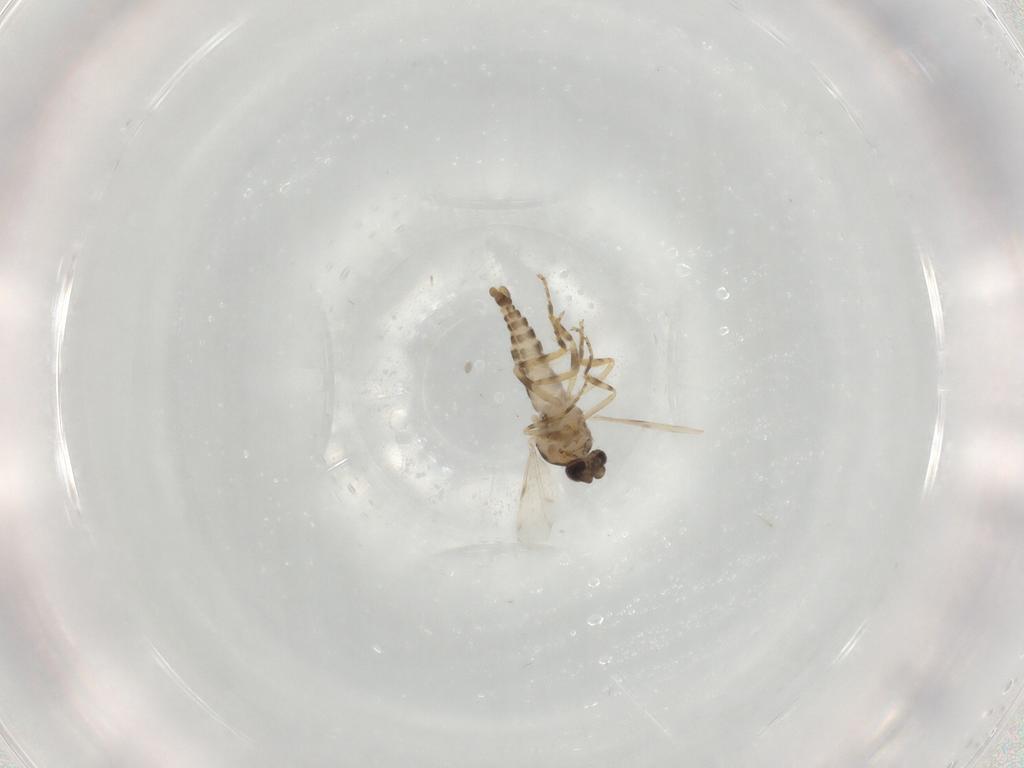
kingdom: Animalia
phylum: Arthropoda
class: Insecta
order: Diptera
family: Ceratopogonidae
